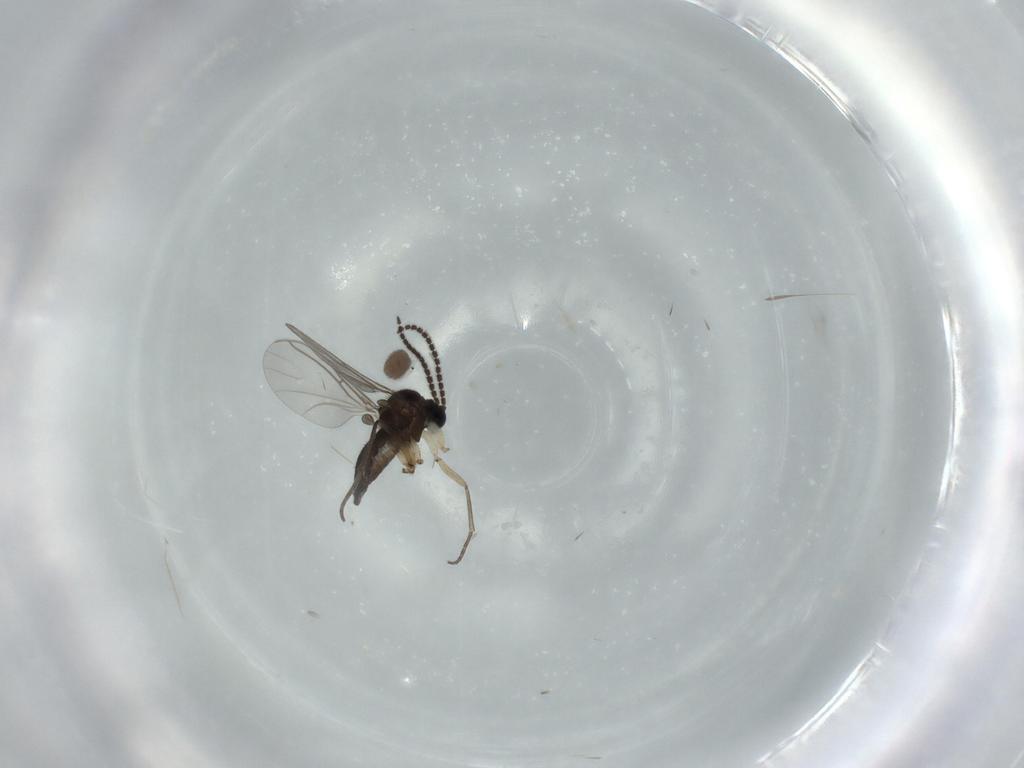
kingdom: Animalia
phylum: Arthropoda
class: Insecta
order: Diptera
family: Sciaridae
